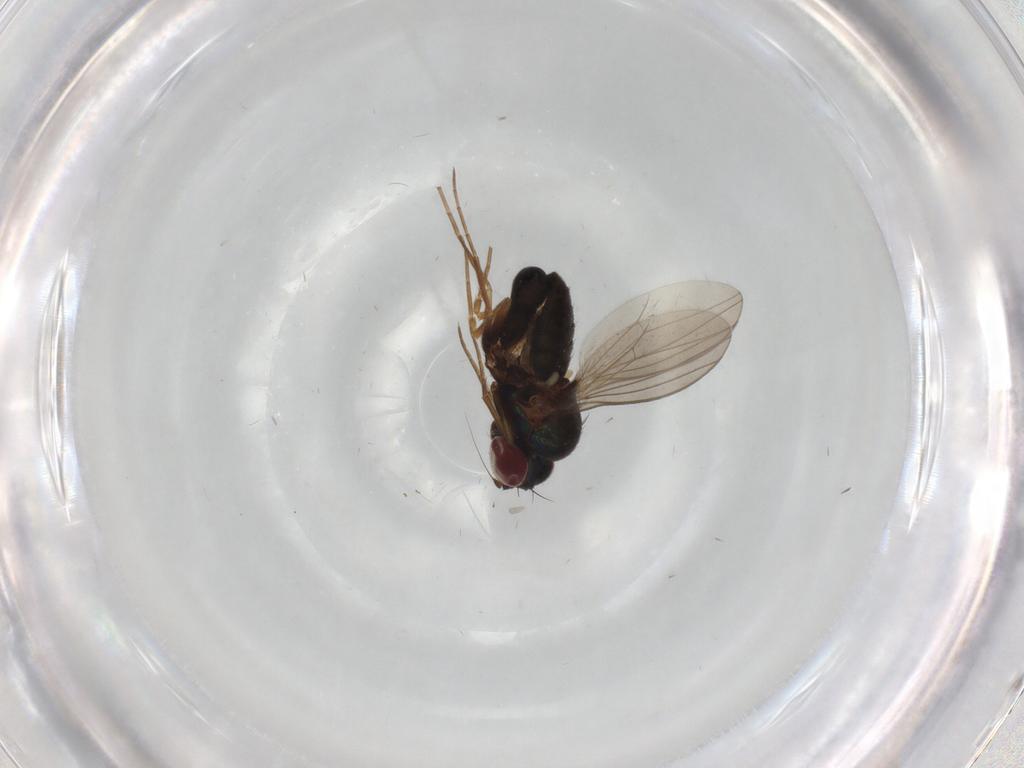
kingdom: Animalia
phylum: Arthropoda
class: Insecta
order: Diptera
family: Dolichopodidae
